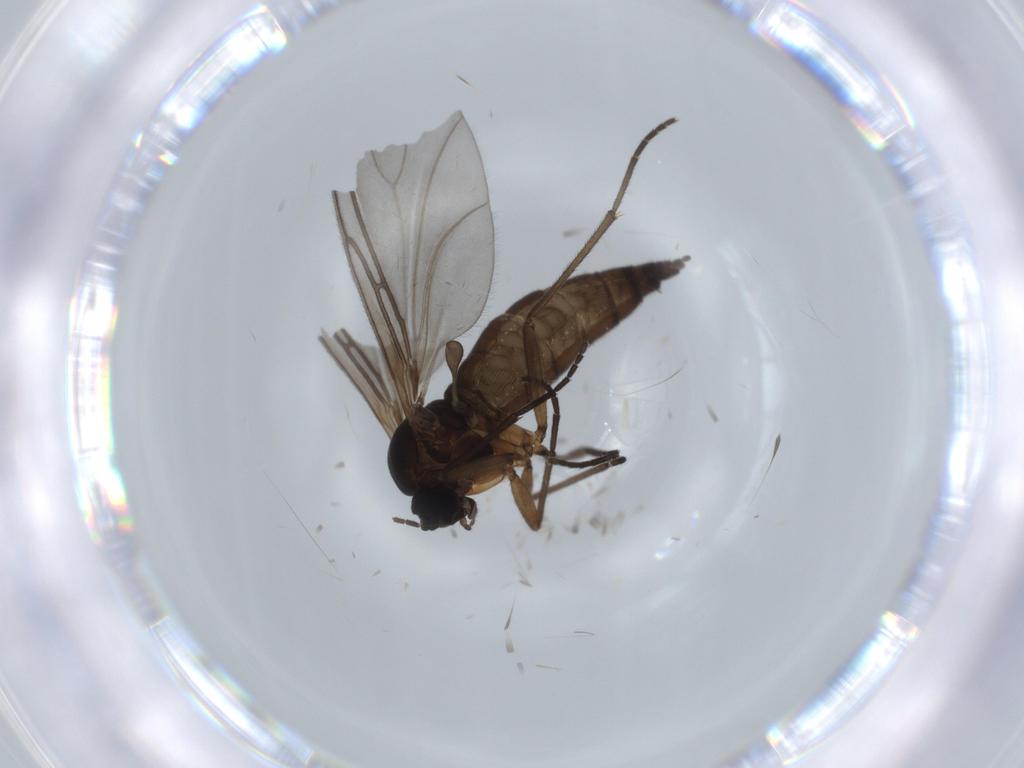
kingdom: Animalia
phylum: Arthropoda
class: Insecta
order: Diptera
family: Sciaridae
